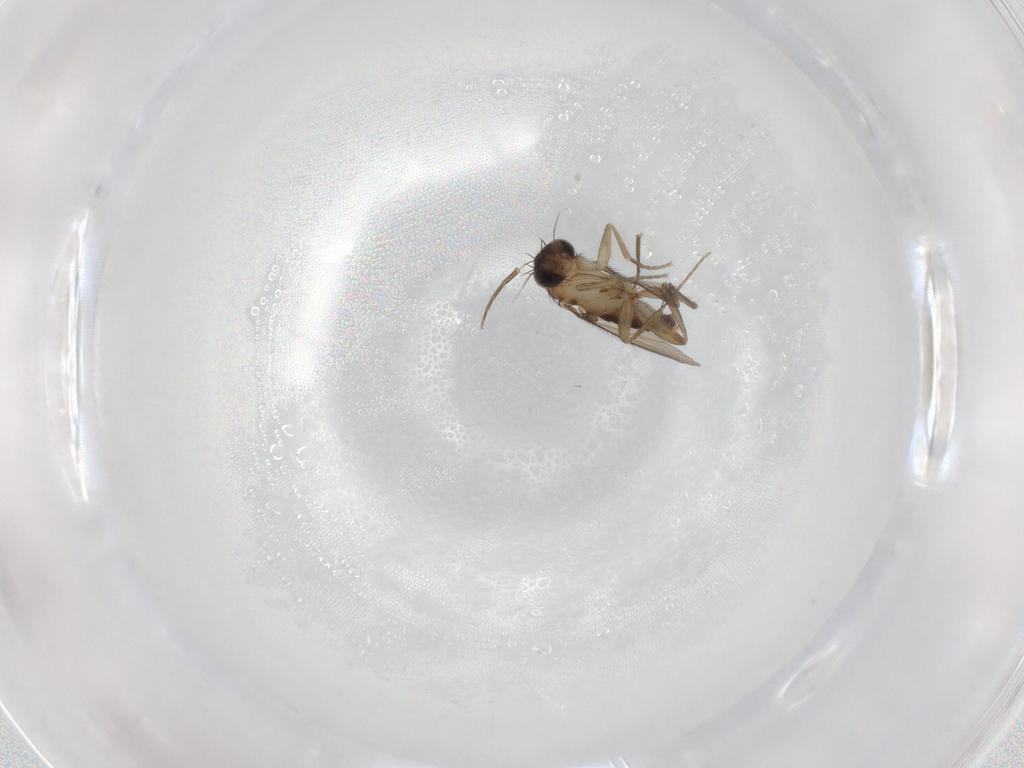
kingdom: Animalia
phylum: Arthropoda
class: Insecta
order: Diptera
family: Phoridae
